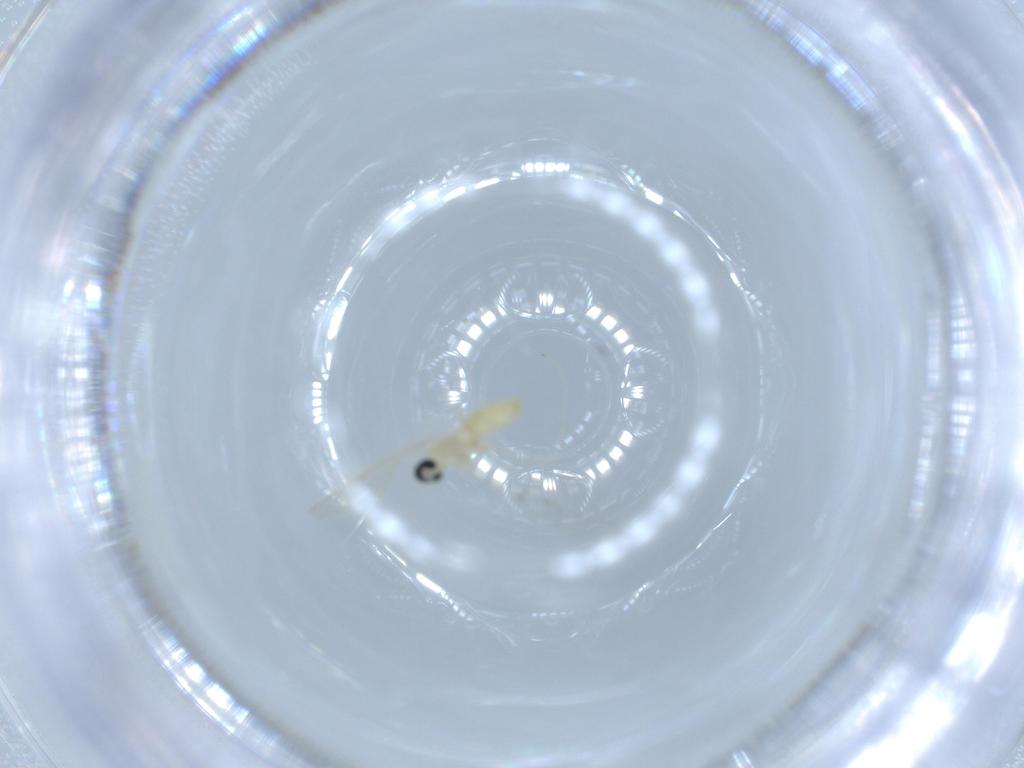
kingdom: Animalia
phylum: Arthropoda
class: Insecta
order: Diptera
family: Cecidomyiidae
